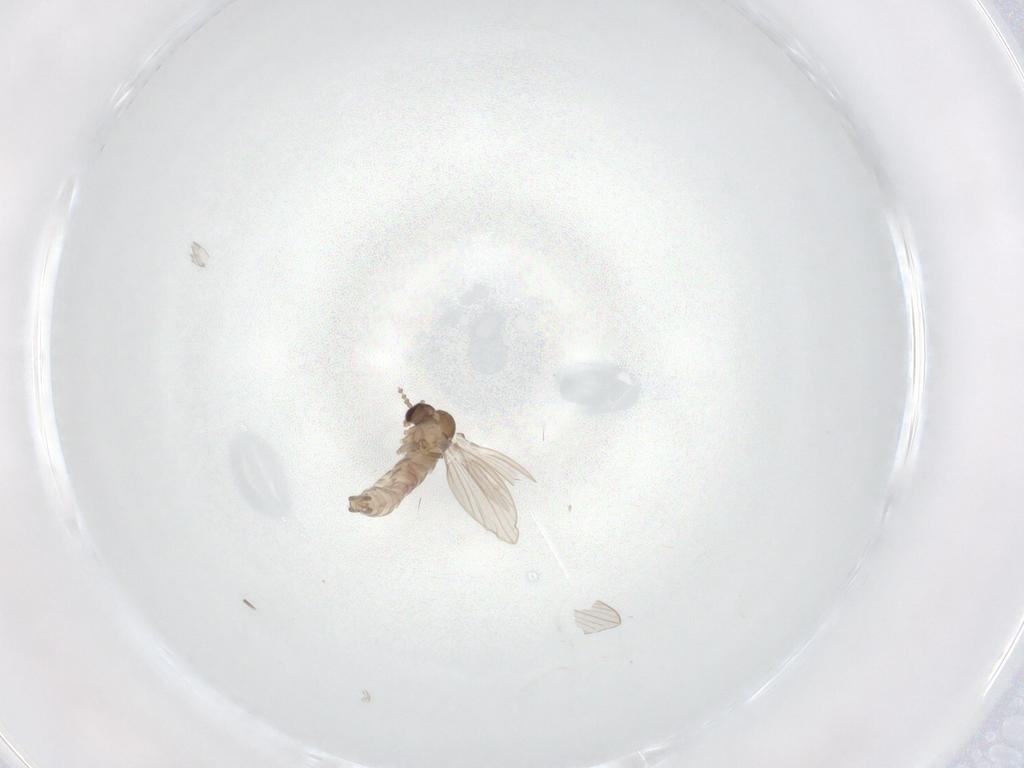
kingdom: Animalia
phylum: Arthropoda
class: Insecta
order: Diptera
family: Psychodidae
